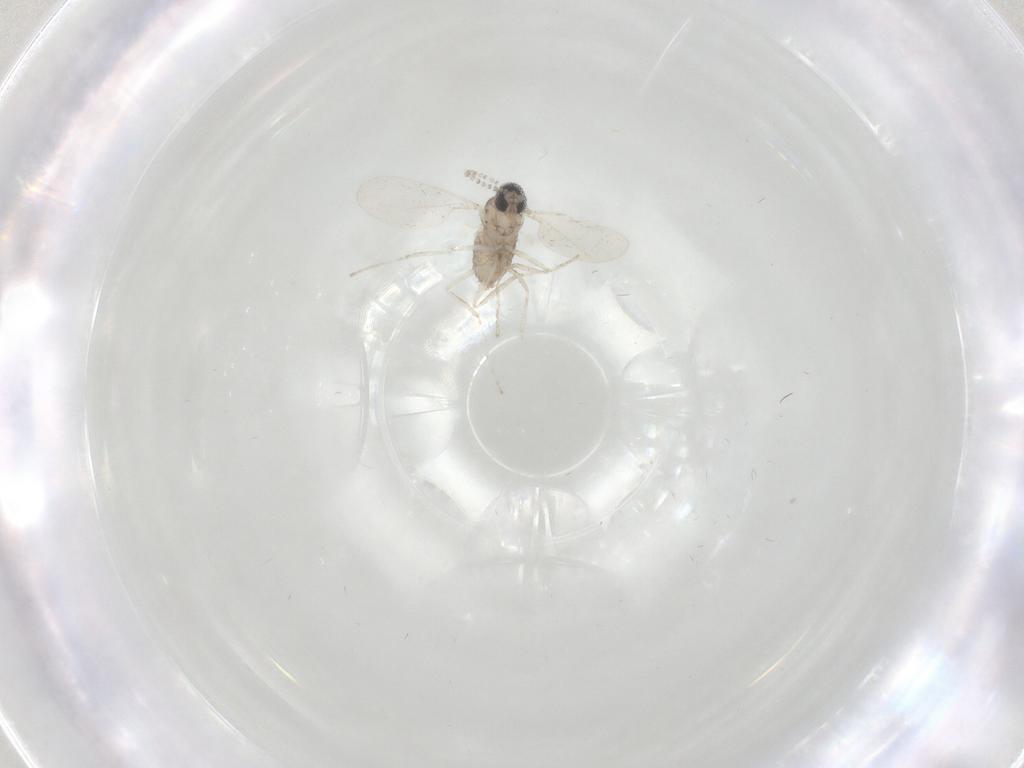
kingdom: Animalia
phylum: Arthropoda
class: Insecta
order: Diptera
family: Cecidomyiidae
